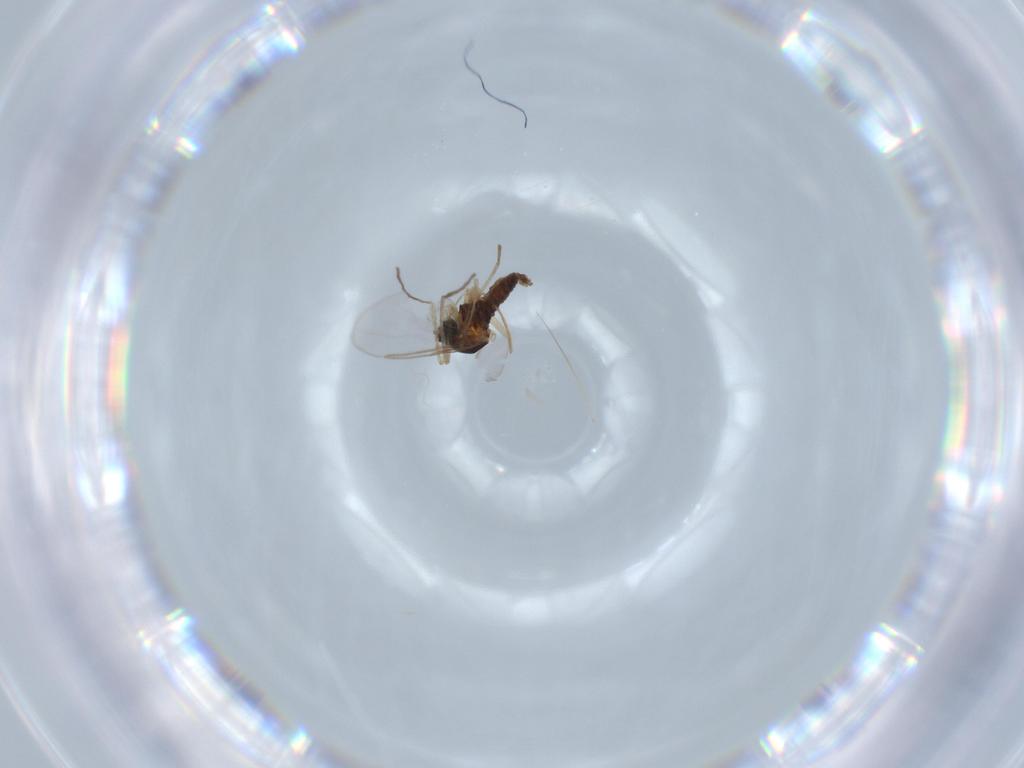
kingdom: Animalia
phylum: Arthropoda
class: Insecta
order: Diptera
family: Cecidomyiidae
